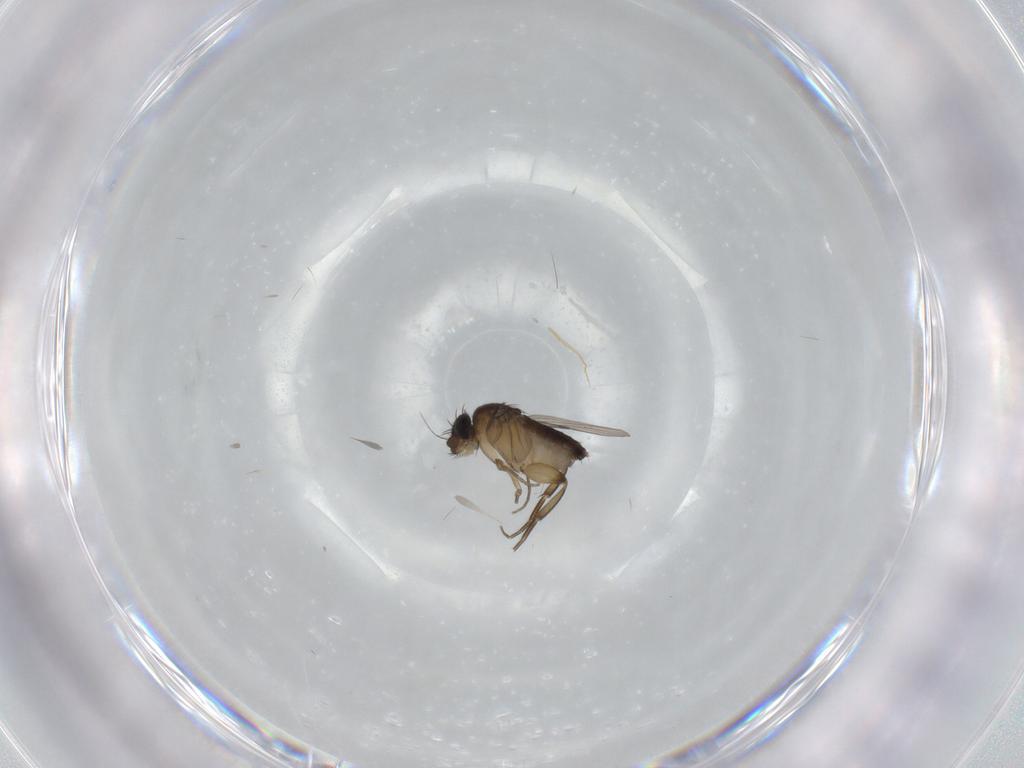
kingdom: Animalia
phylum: Arthropoda
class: Insecta
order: Diptera
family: Phoridae
